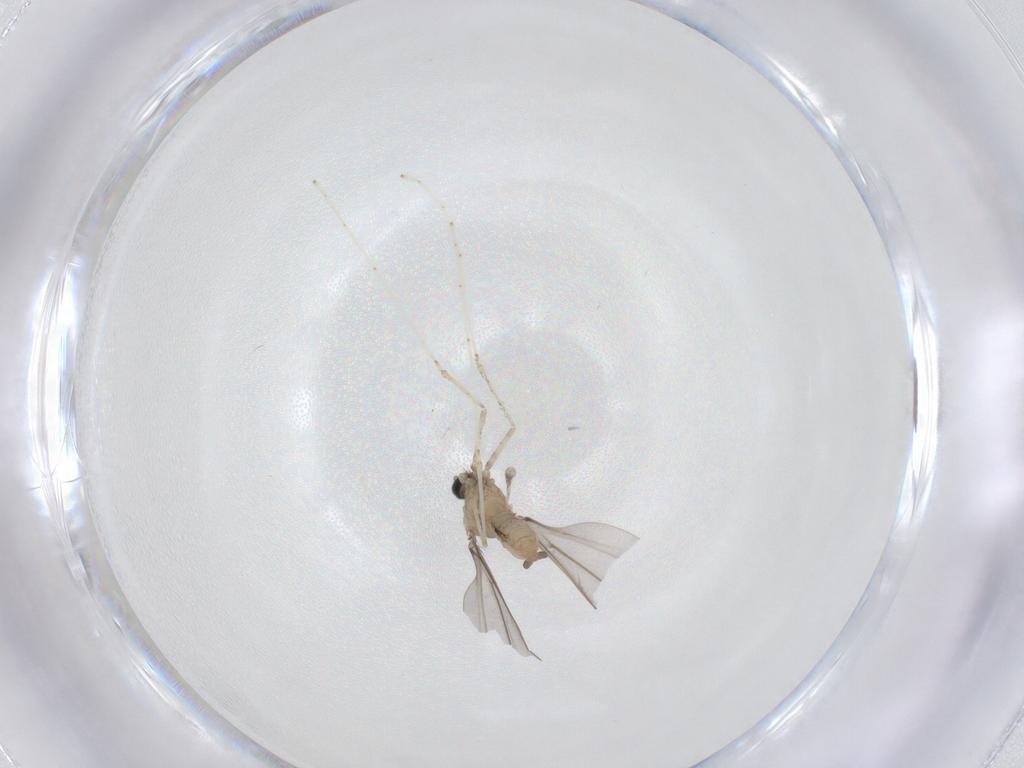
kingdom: Animalia
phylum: Arthropoda
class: Insecta
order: Diptera
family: Cecidomyiidae
